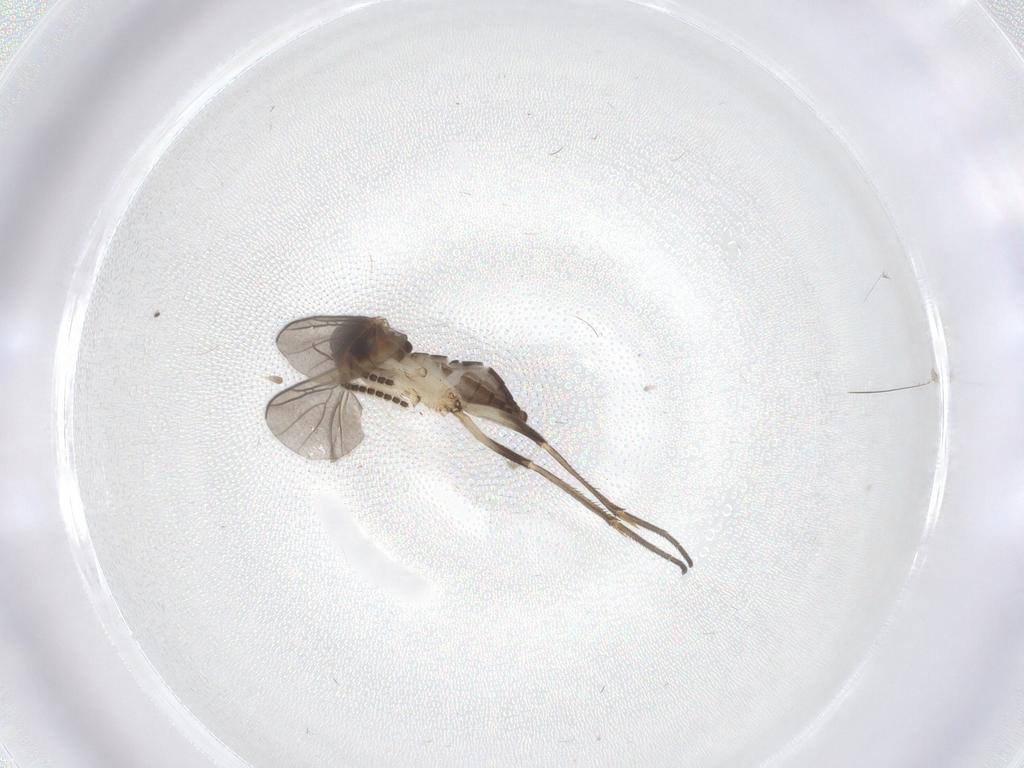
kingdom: Animalia
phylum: Arthropoda
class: Insecta
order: Diptera
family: Mycetophilidae
